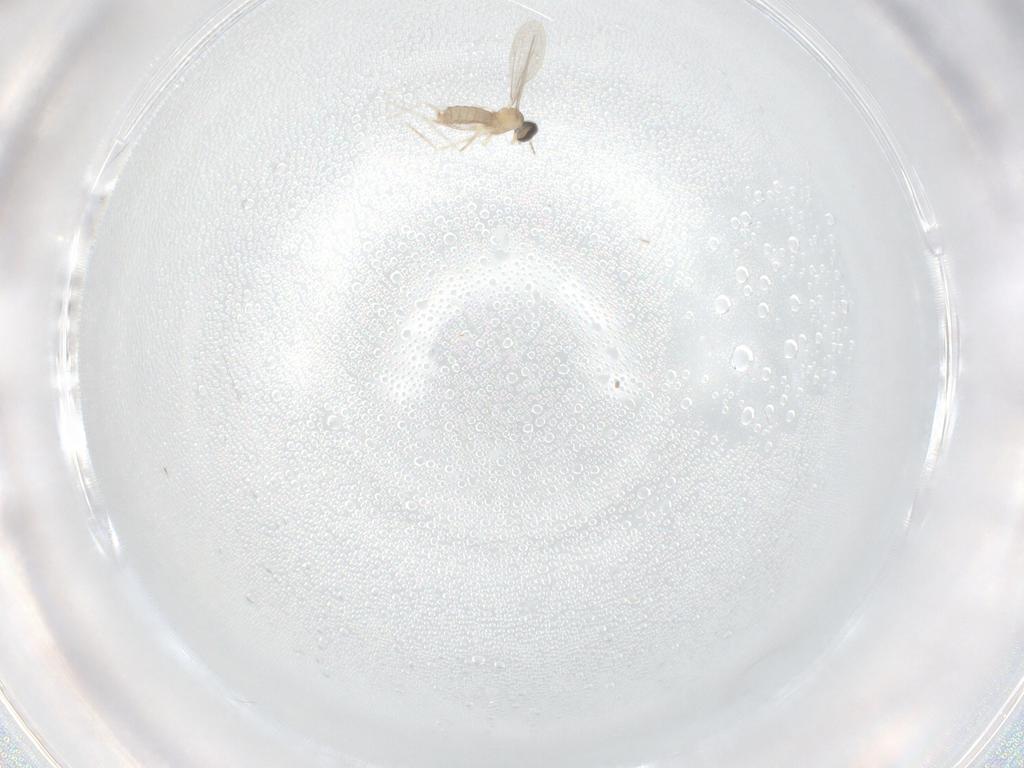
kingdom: Animalia
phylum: Arthropoda
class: Insecta
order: Diptera
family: Cecidomyiidae
